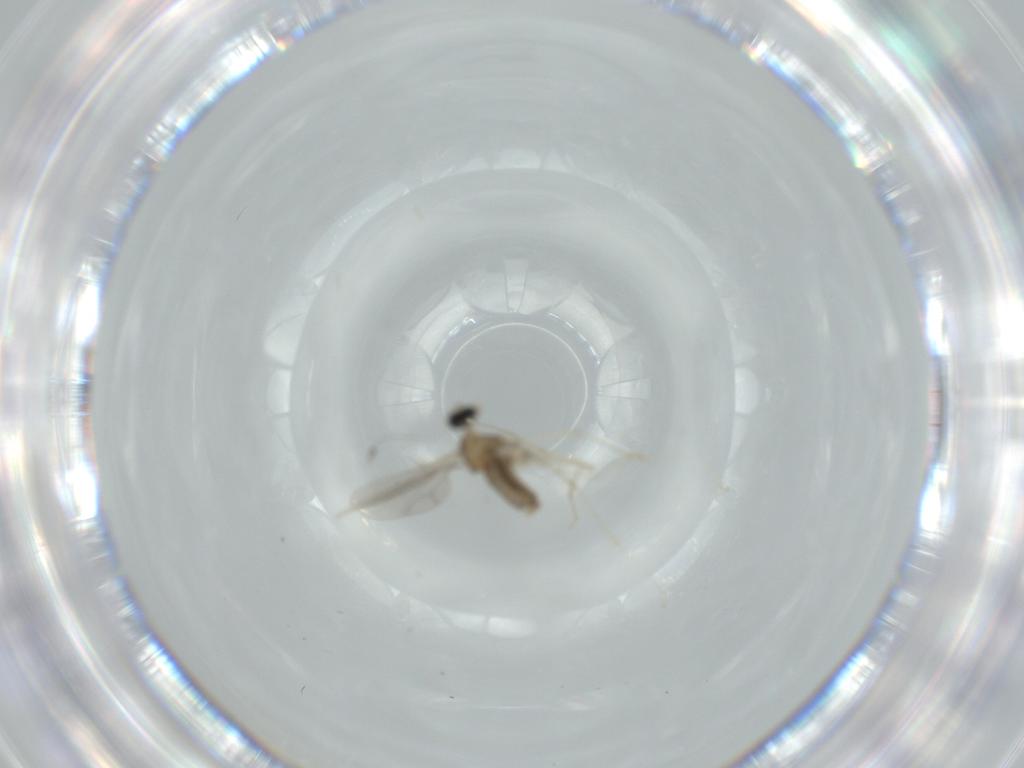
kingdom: Animalia
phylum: Arthropoda
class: Insecta
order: Diptera
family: Cecidomyiidae
